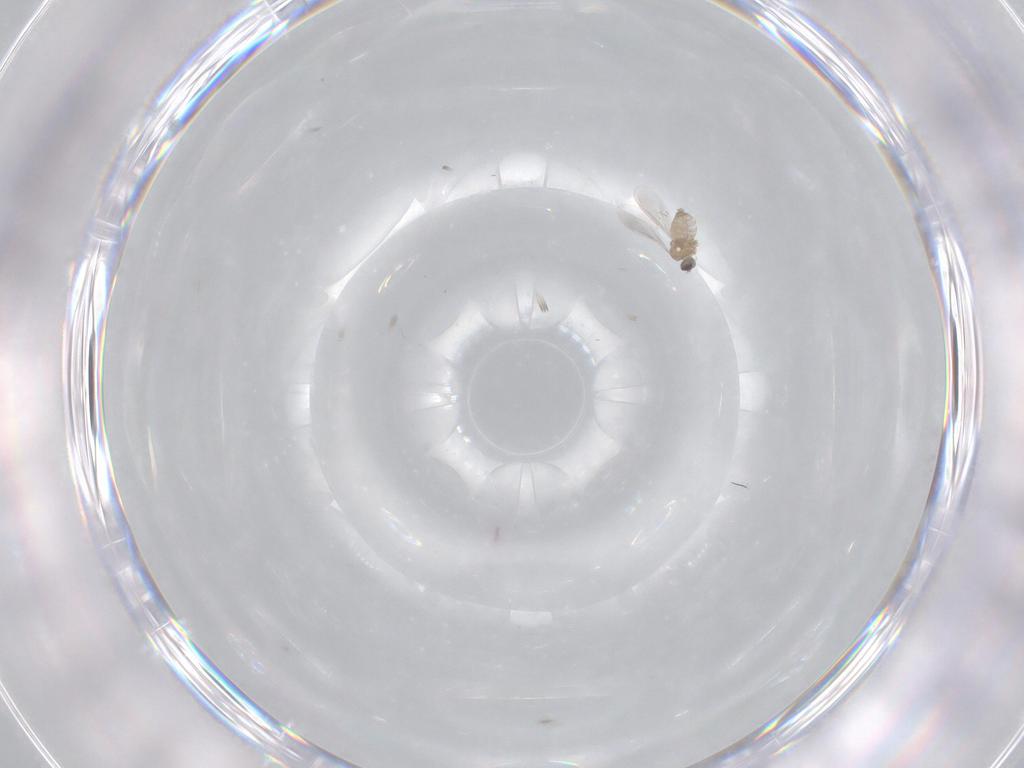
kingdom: Animalia
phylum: Arthropoda
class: Insecta
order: Diptera
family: Cecidomyiidae
